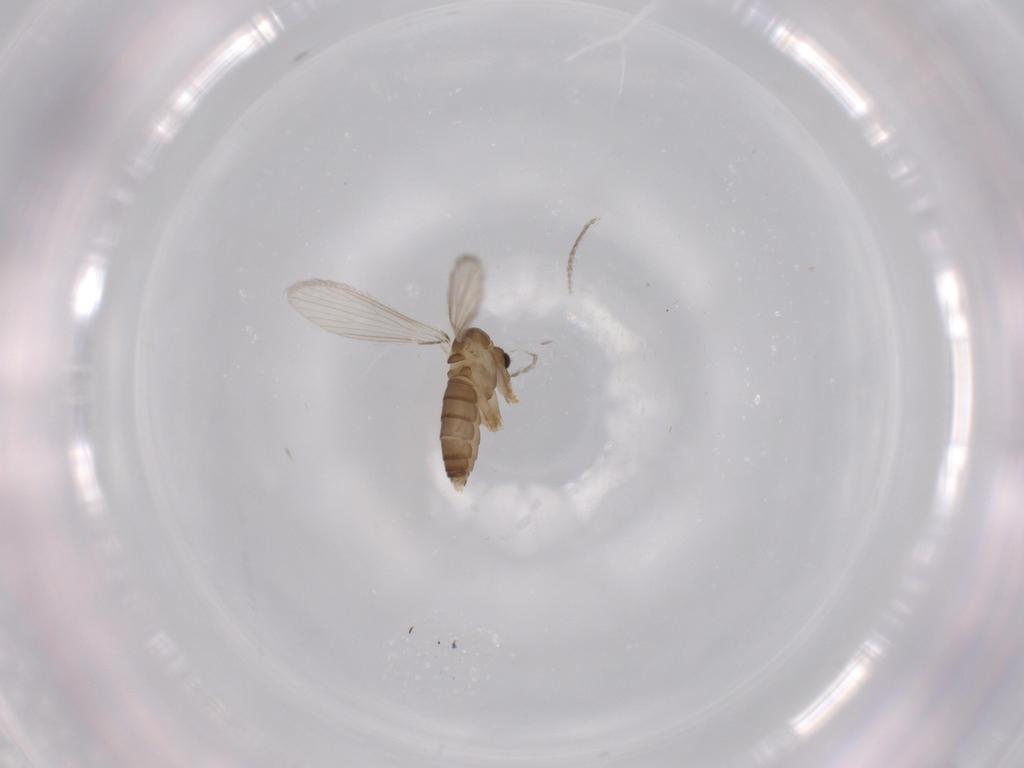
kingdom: Animalia
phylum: Arthropoda
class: Insecta
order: Diptera
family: Psychodidae
